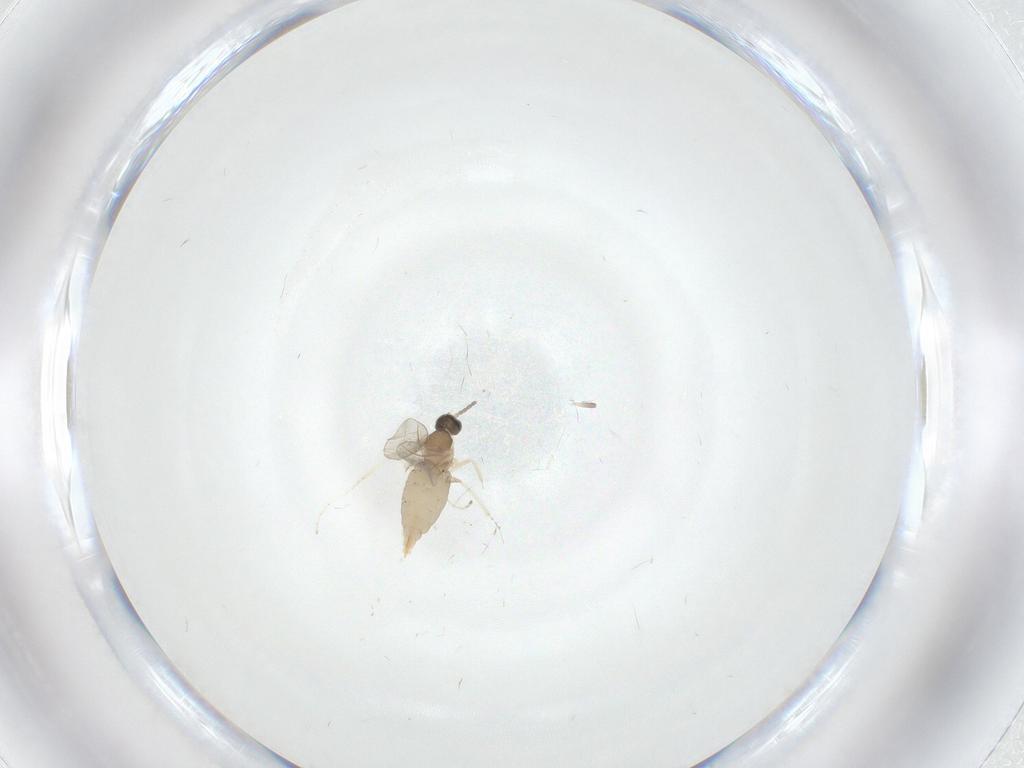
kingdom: Animalia
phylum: Arthropoda
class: Insecta
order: Diptera
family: Cecidomyiidae
